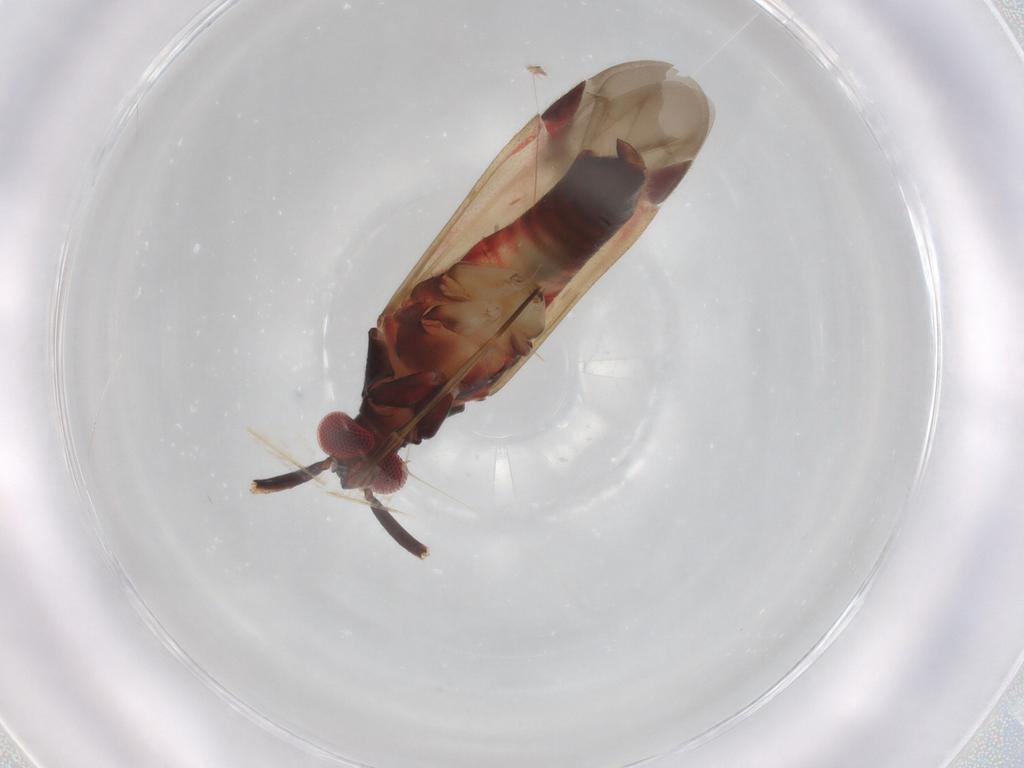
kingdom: Animalia
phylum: Arthropoda
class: Insecta
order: Hemiptera
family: Miridae
